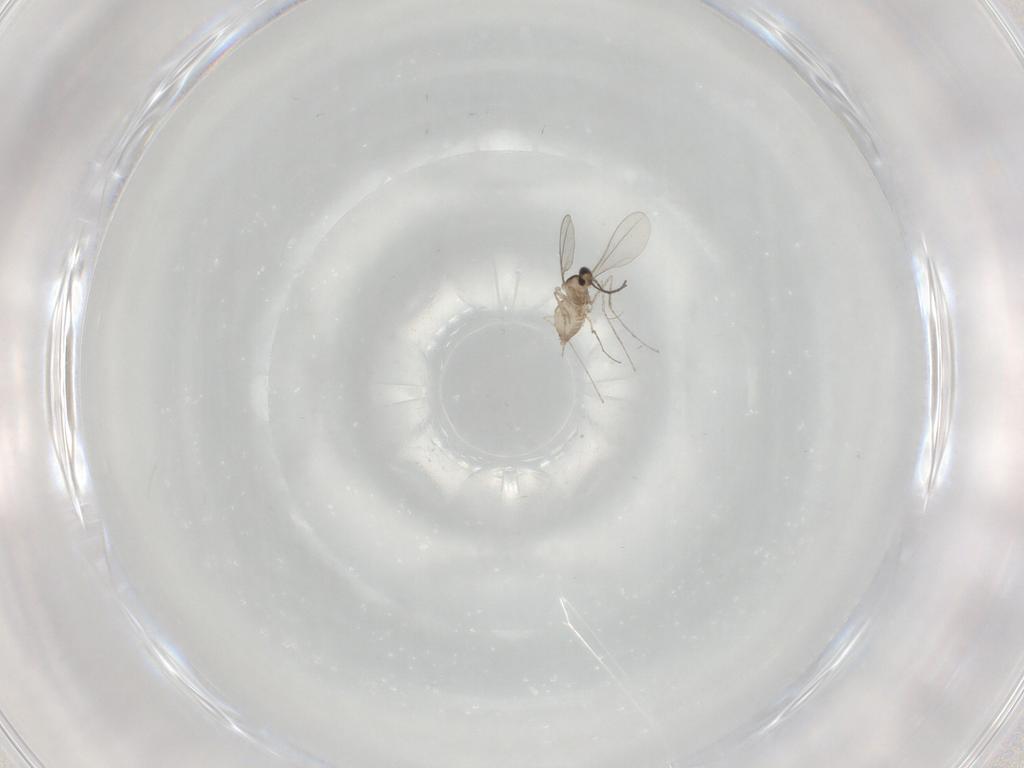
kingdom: Animalia
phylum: Arthropoda
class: Insecta
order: Diptera
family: Cecidomyiidae
